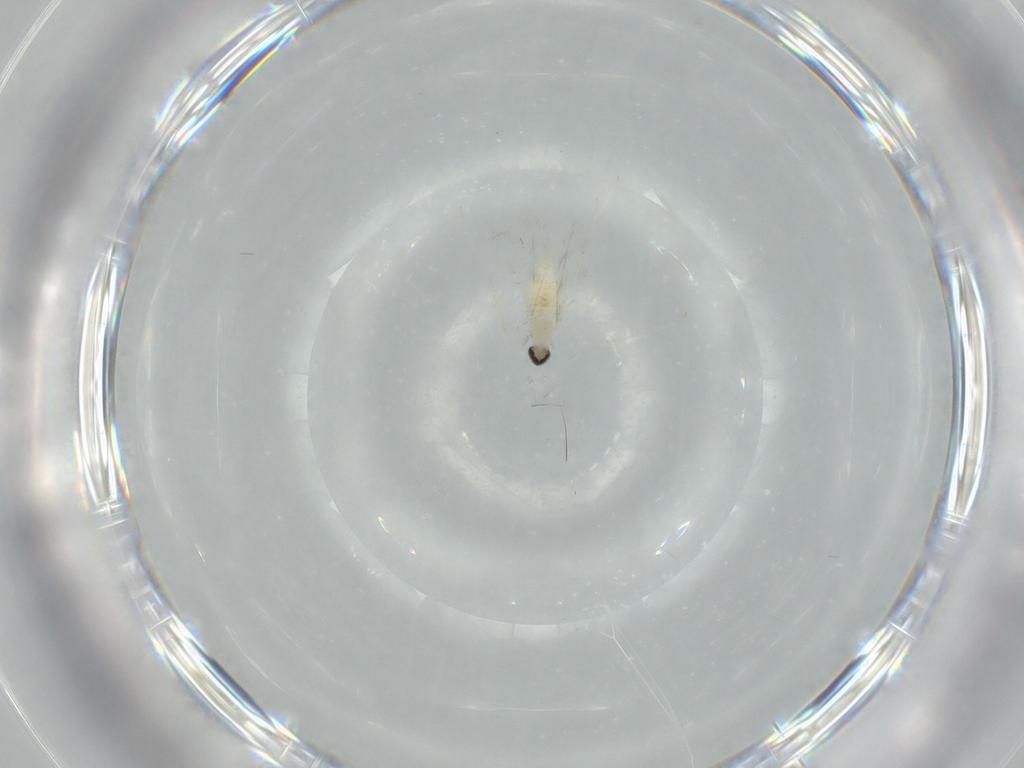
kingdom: Animalia
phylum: Arthropoda
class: Insecta
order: Diptera
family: Cecidomyiidae
